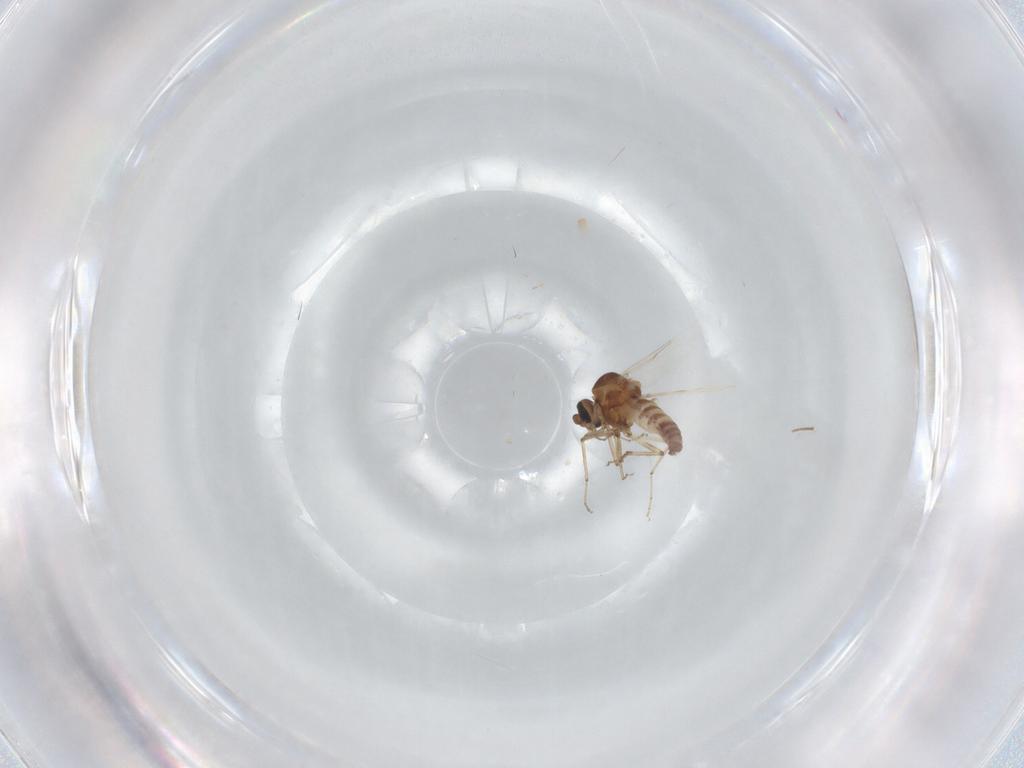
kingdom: Animalia
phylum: Arthropoda
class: Insecta
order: Diptera
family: Ceratopogonidae
